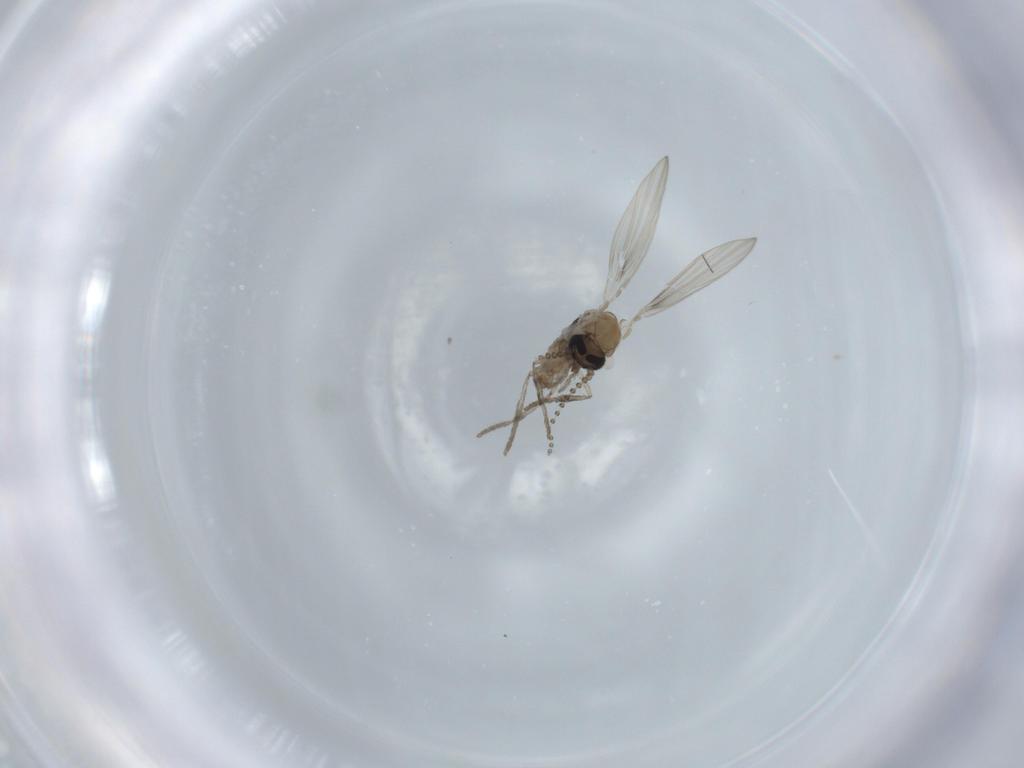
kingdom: Animalia
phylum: Arthropoda
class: Insecta
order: Diptera
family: Psychodidae
